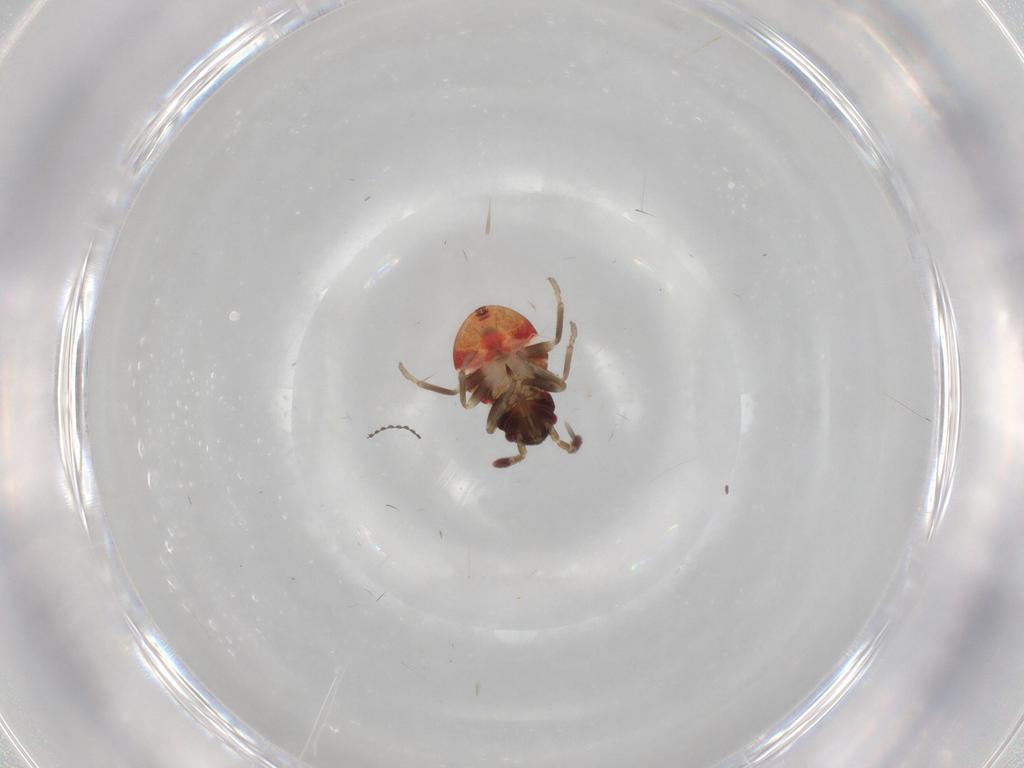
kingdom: Animalia
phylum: Arthropoda
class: Insecta
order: Hemiptera
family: Rhyparochromidae
